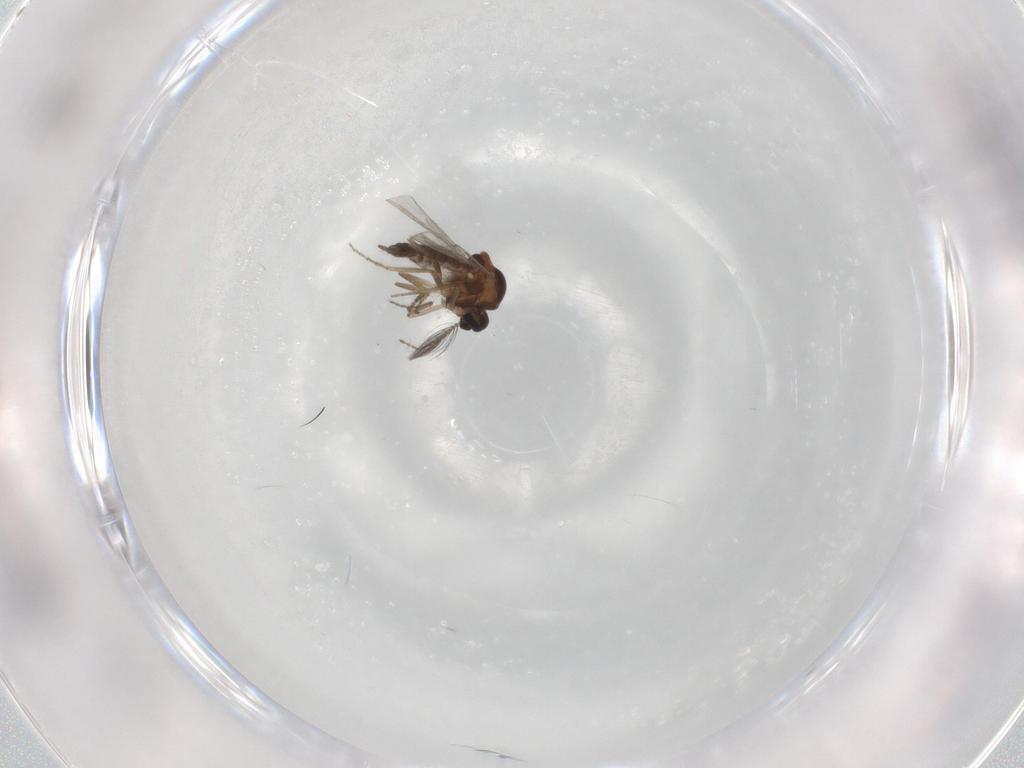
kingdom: Animalia
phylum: Arthropoda
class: Insecta
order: Diptera
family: Ceratopogonidae
